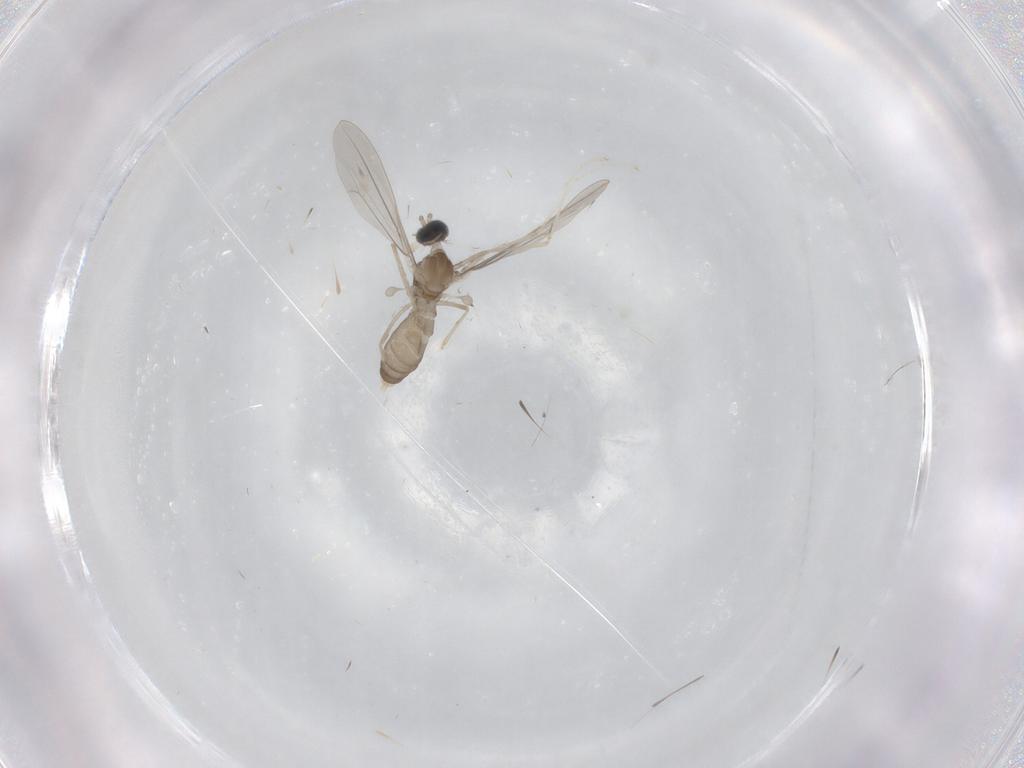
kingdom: Animalia
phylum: Arthropoda
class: Insecta
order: Diptera
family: Cecidomyiidae
